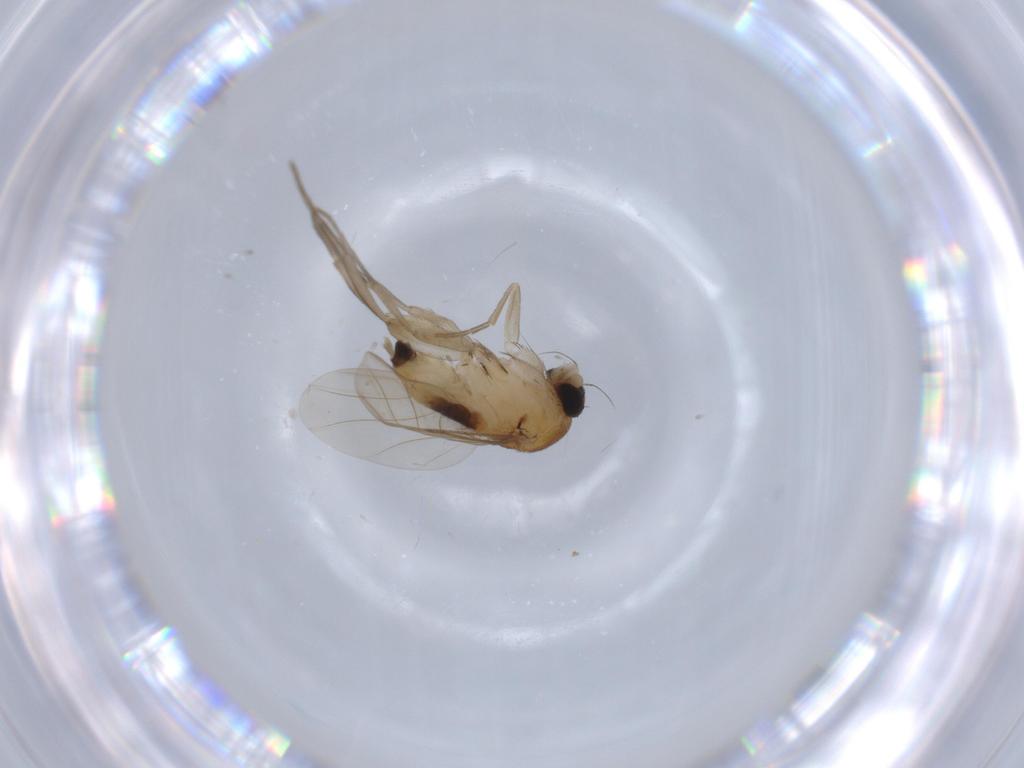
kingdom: Animalia
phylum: Arthropoda
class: Insecta
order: Diptera
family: Phoridae
